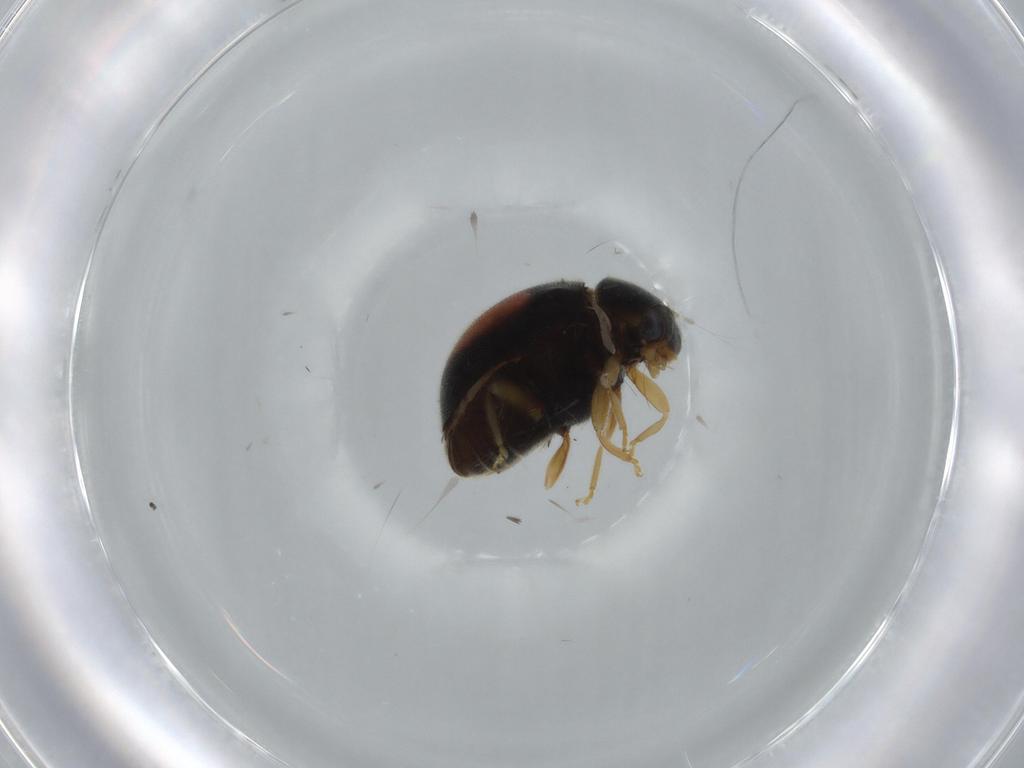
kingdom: Animalia
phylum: Arthropoda
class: Insecta
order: Coleoptera
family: Coccinellidae
